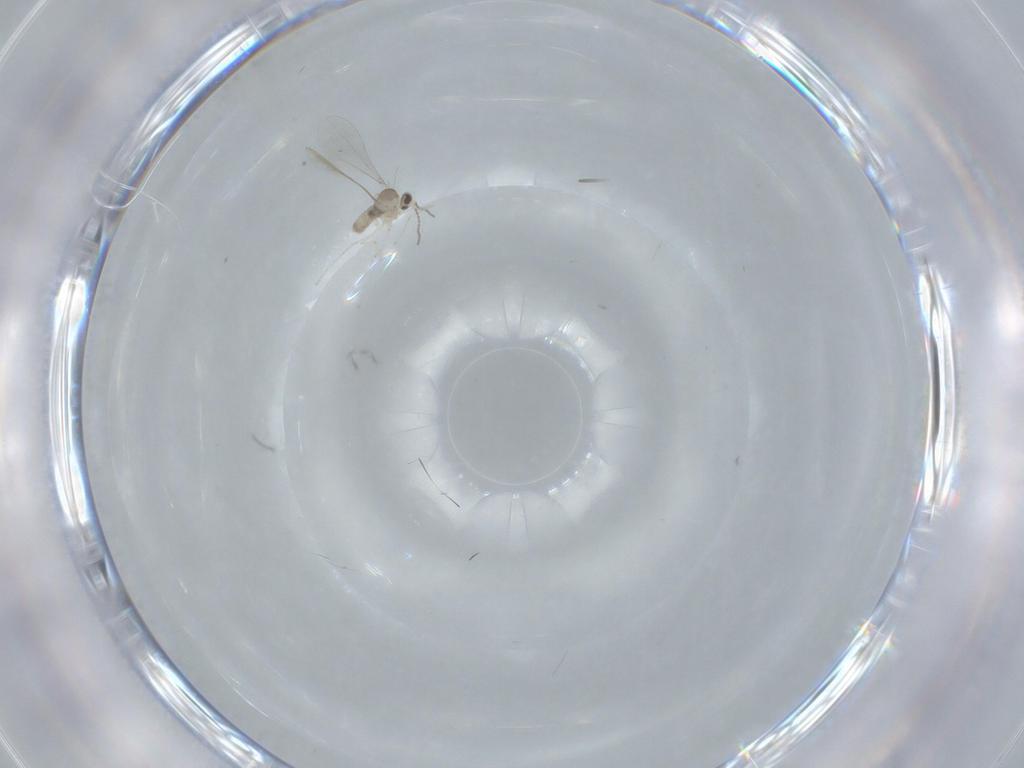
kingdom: Animalia
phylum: Arthropoda
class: Insecta
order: Diptera
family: Cecidomyiidae
